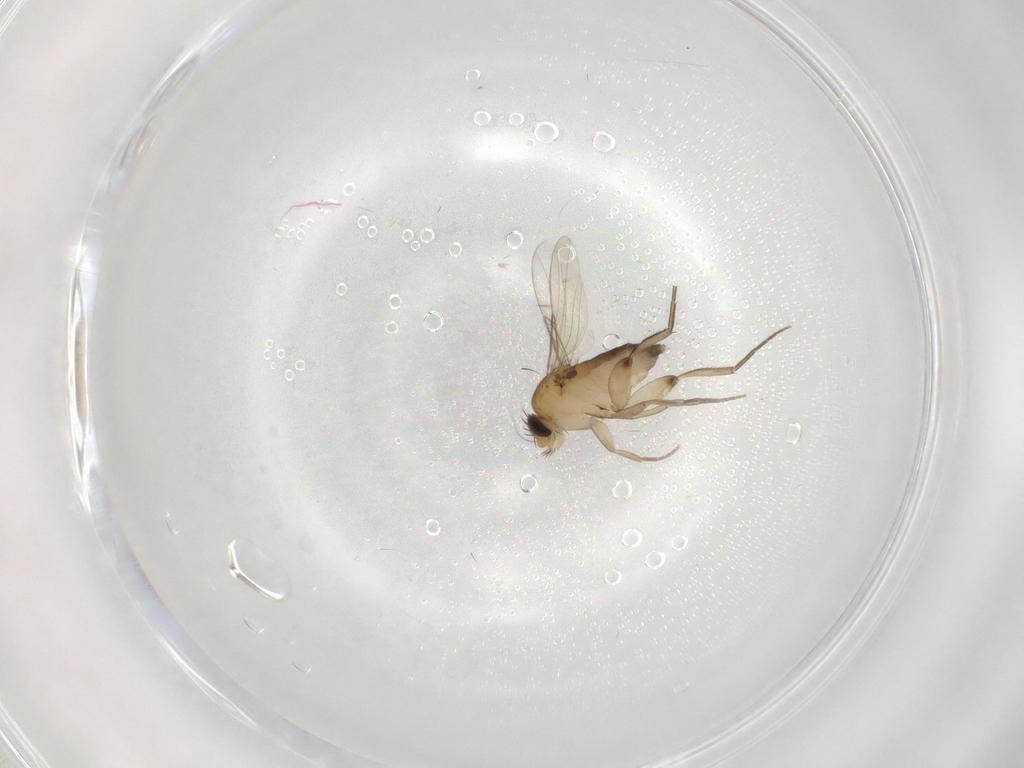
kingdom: Animalia
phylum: Arthropoda
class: Insecta
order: Diptera
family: Phoridae
